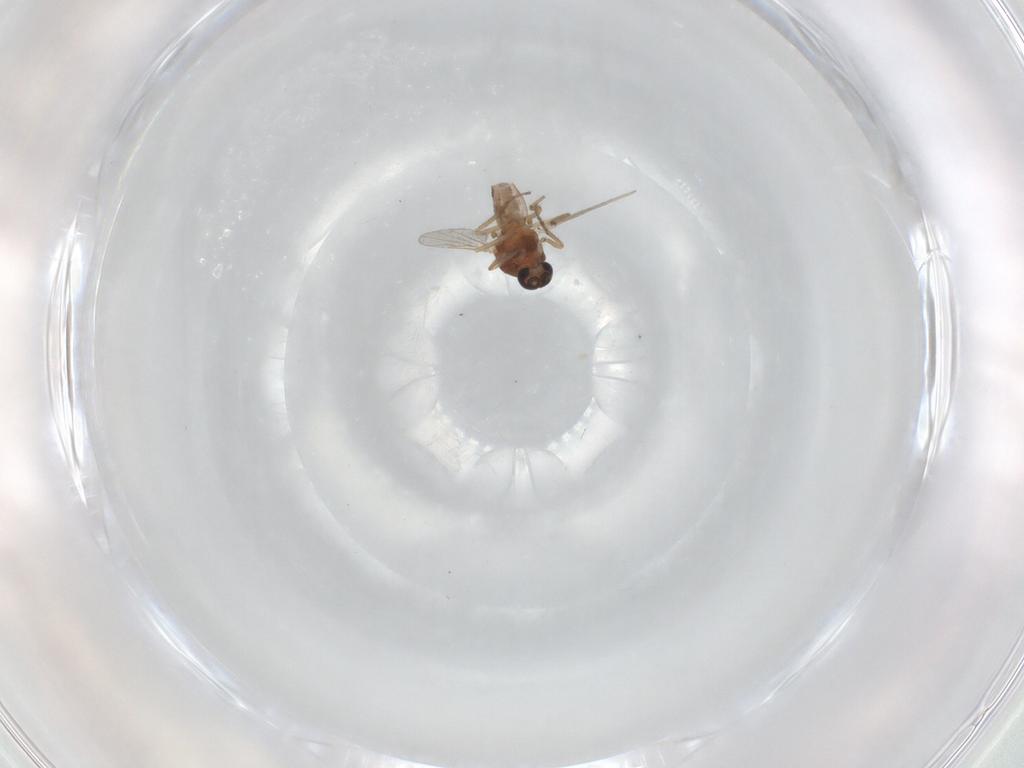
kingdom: Animalia
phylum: Arthropoda
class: Insecta
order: Diptera
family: Ceratopogonidae
